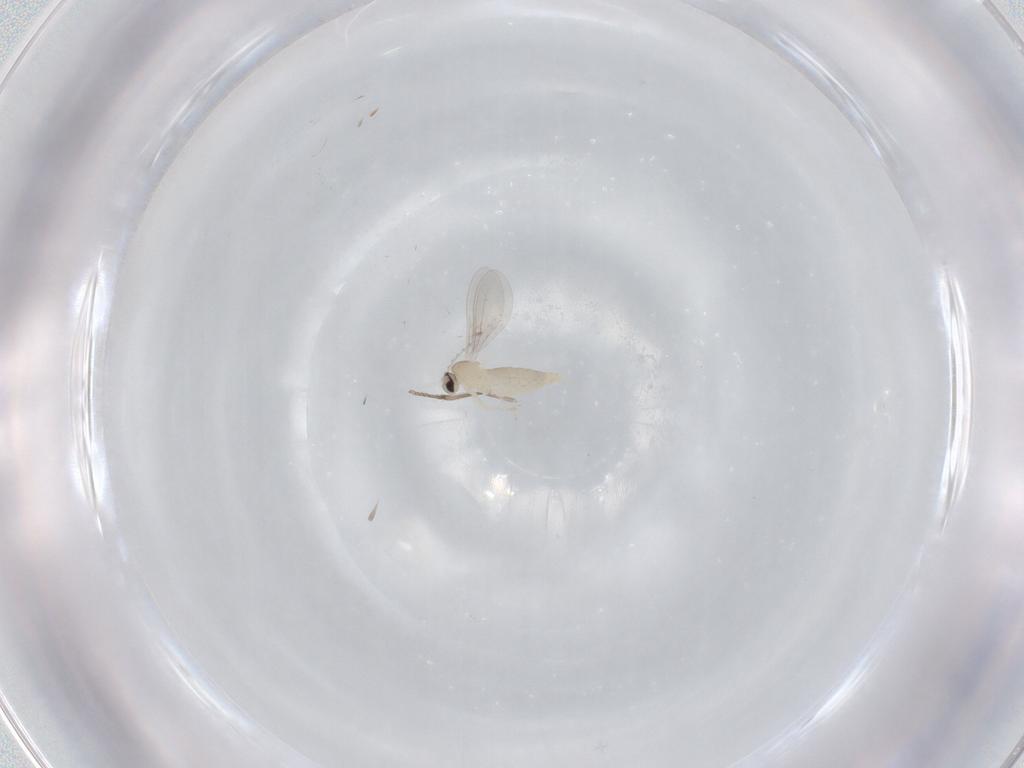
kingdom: Animalia
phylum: Arthropoda
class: Insecta
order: Diptera
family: Cecidomyiidae
